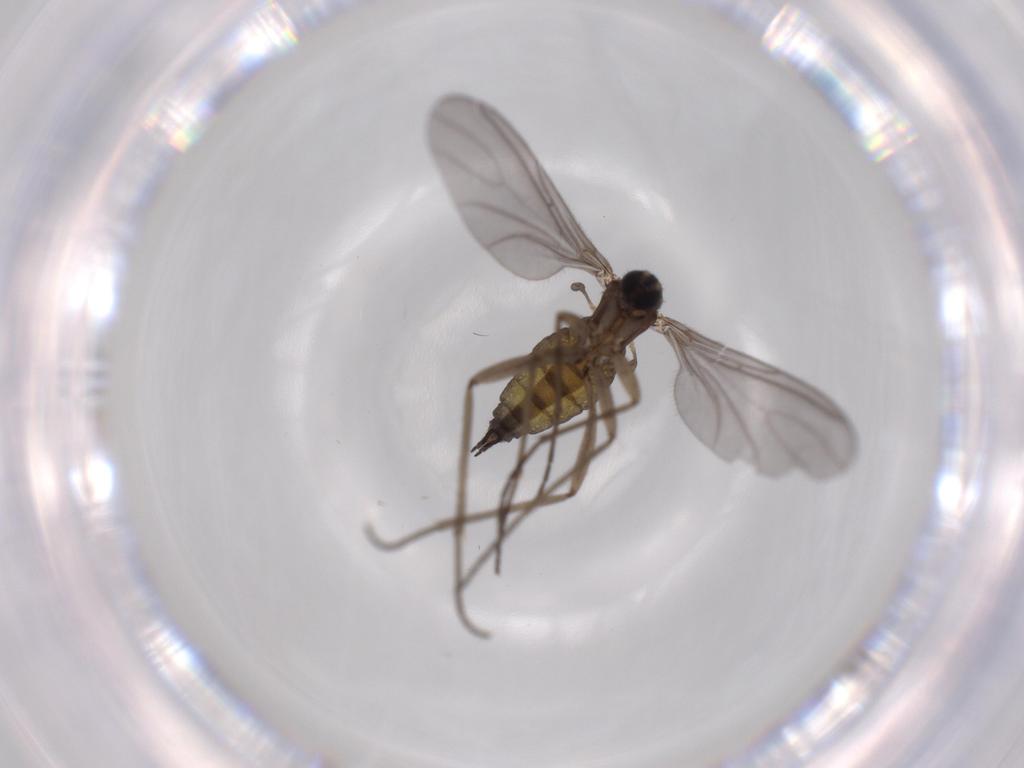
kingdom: Animalia
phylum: Arthropoda
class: Insecta
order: Diptera
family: Sciaridae
